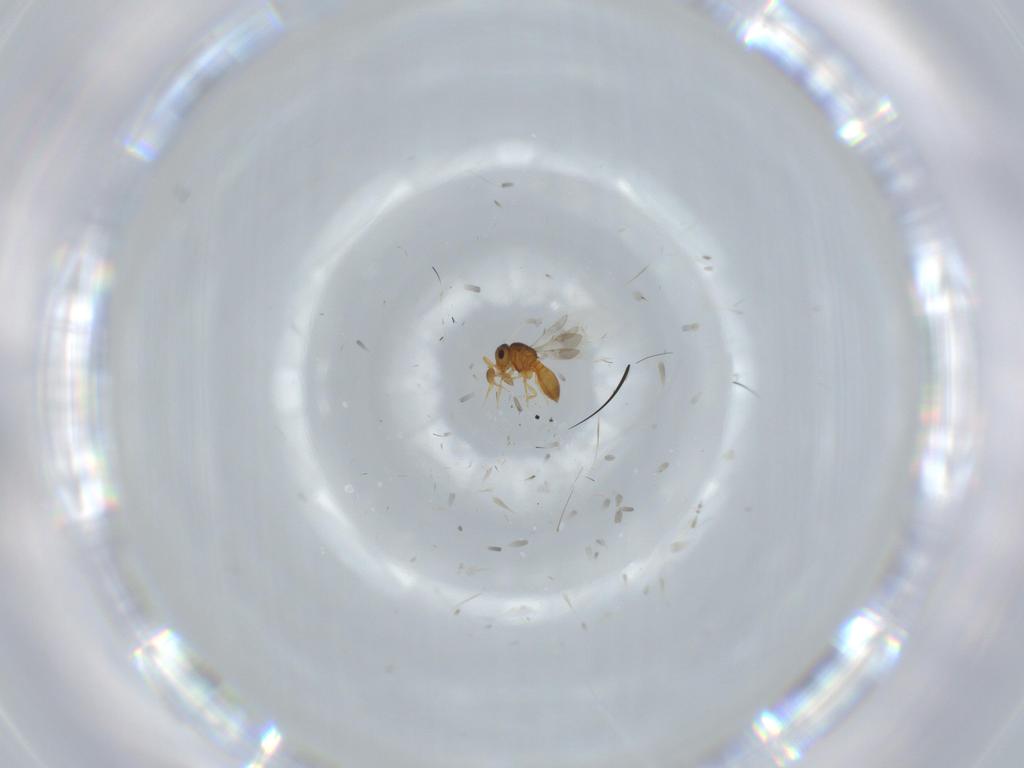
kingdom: Animalia
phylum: Arthropoda
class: Insecta
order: Hymenoptera
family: Scelionidae
